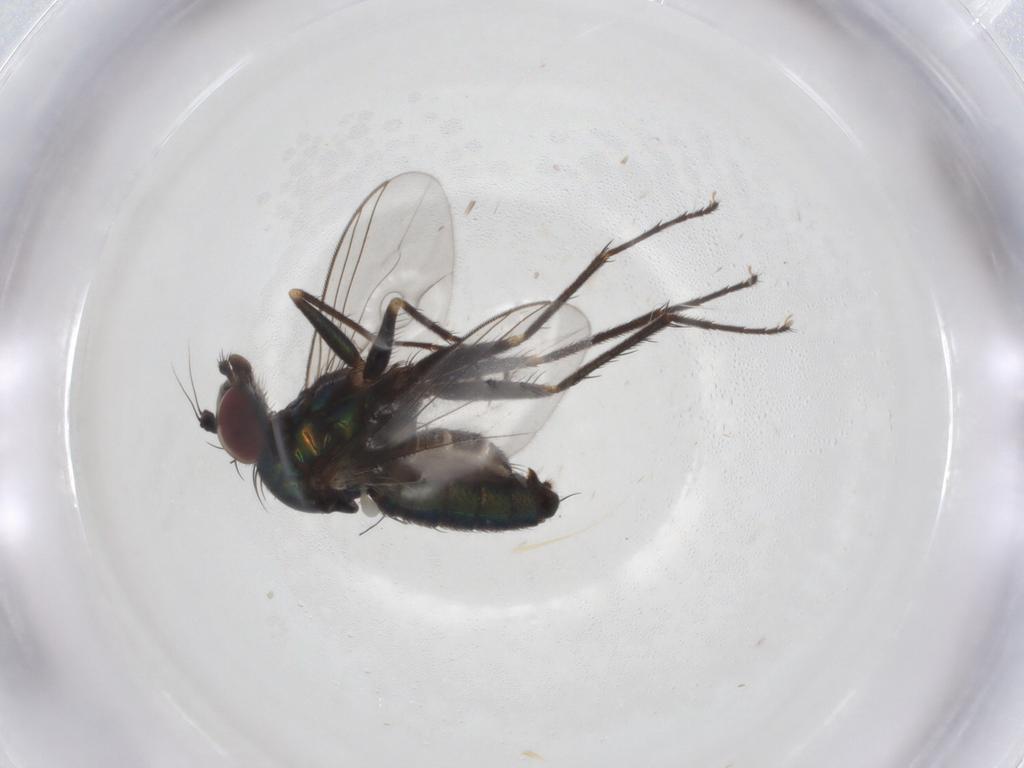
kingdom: Animalia
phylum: Arthropoda
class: Insecta
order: Diptera
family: Dolichopodidae
